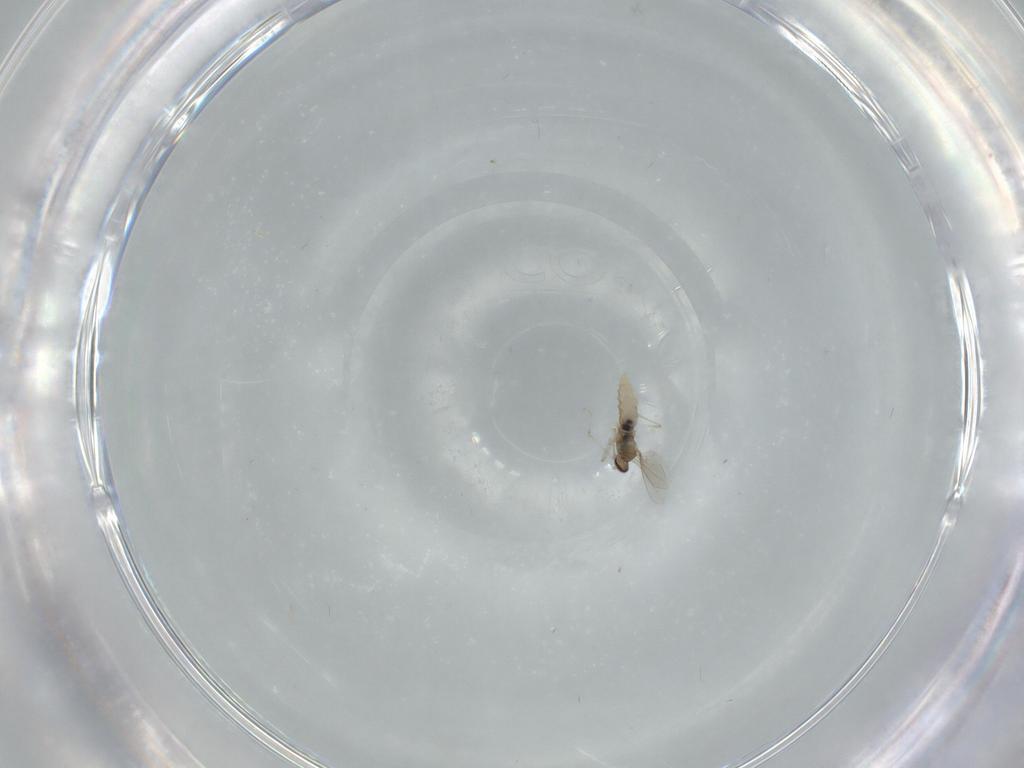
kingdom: Animalia
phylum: Arthropoda
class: Insecta
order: Diptera
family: Cecidomyiidae
